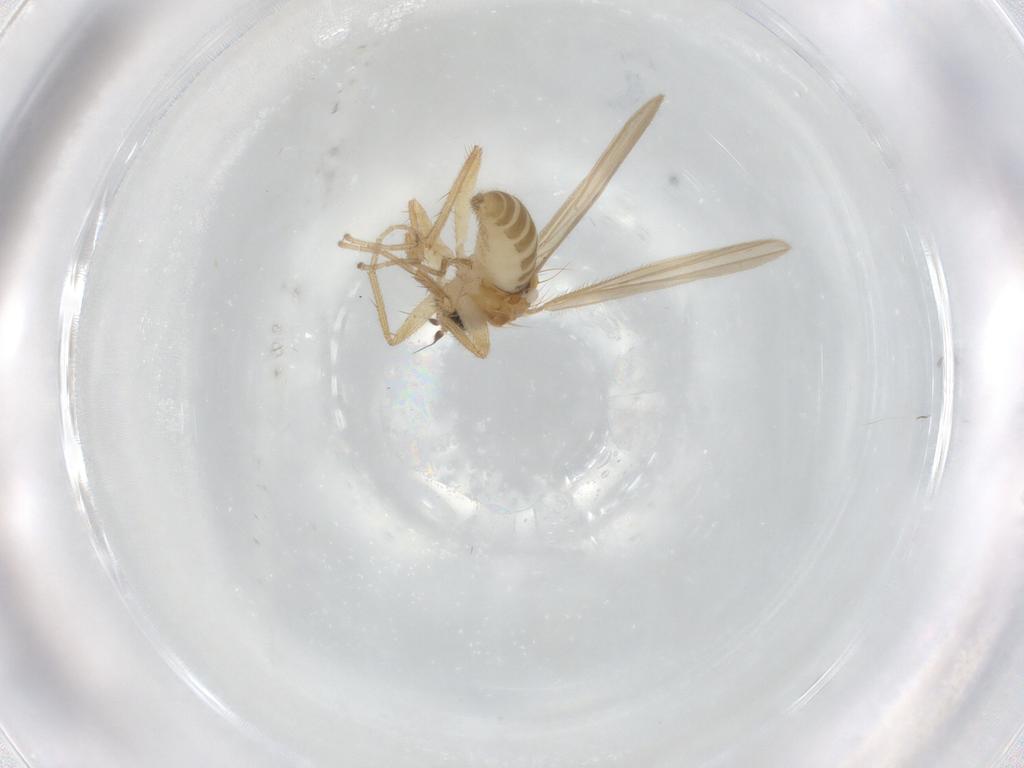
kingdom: Animalia
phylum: Arthropoda
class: Insecta
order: Diptera
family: Hybotidae
